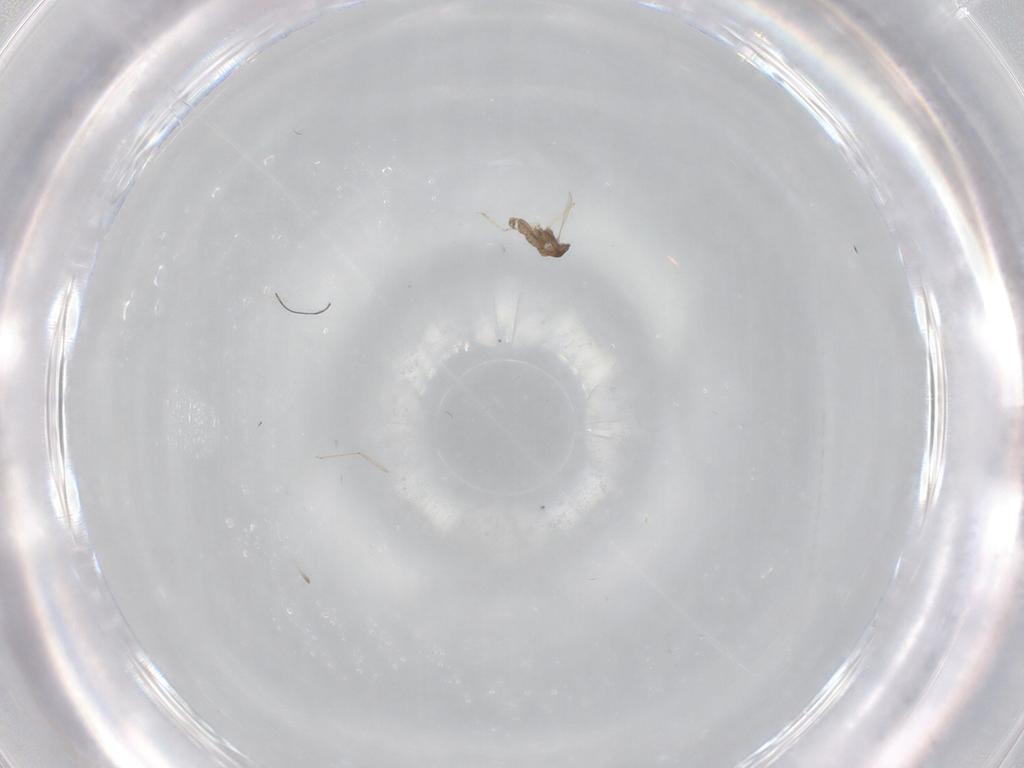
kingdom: Animalia
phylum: Arthropoda
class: Insecta
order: Diptera
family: Cecidomyiidae
